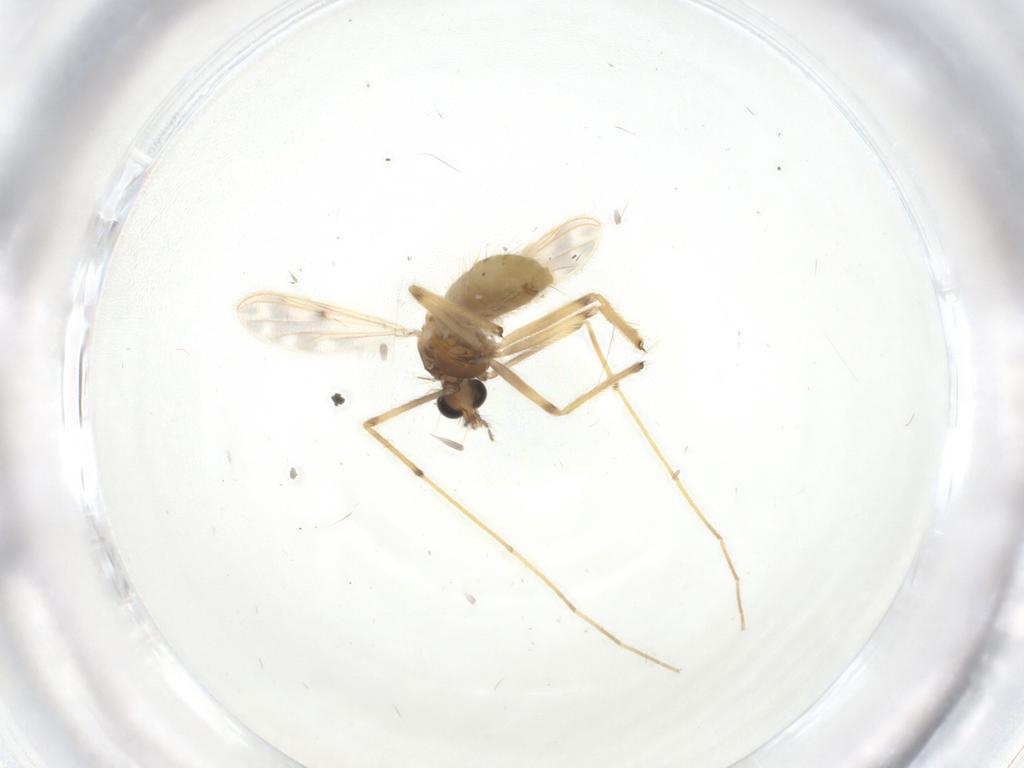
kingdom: Animalia
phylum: Arthropoda
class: Insecta
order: Diptera
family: Chironomidae
